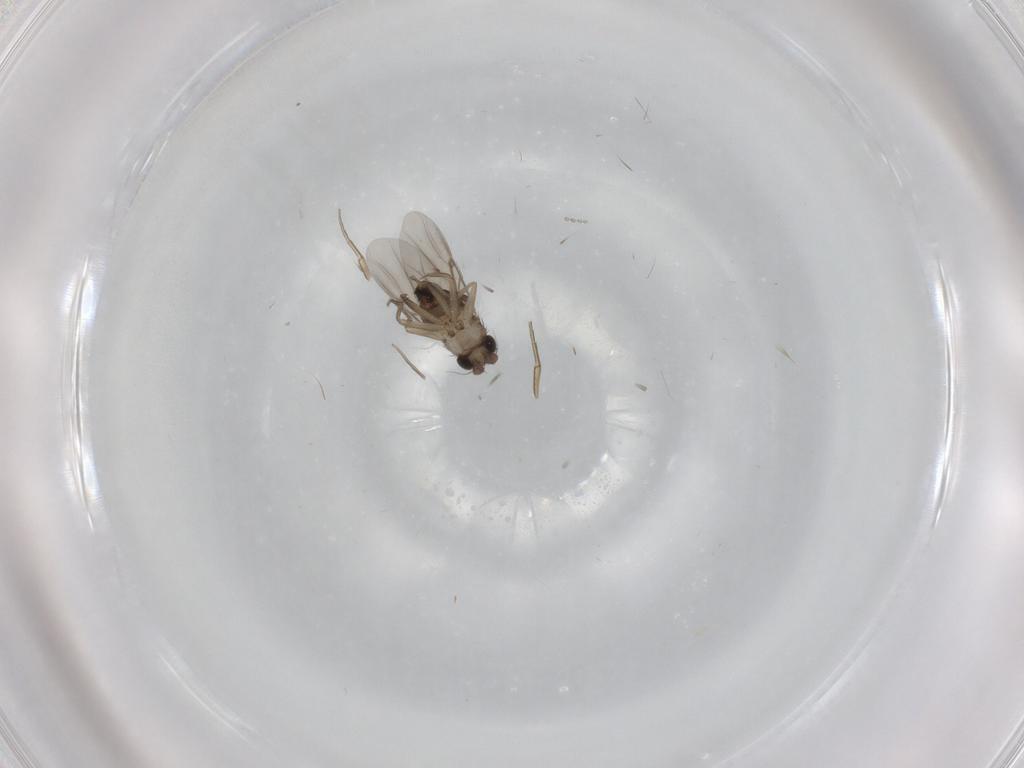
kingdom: Animalia
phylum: Arthropoda
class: Insecta
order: Diptera
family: Phoridae
